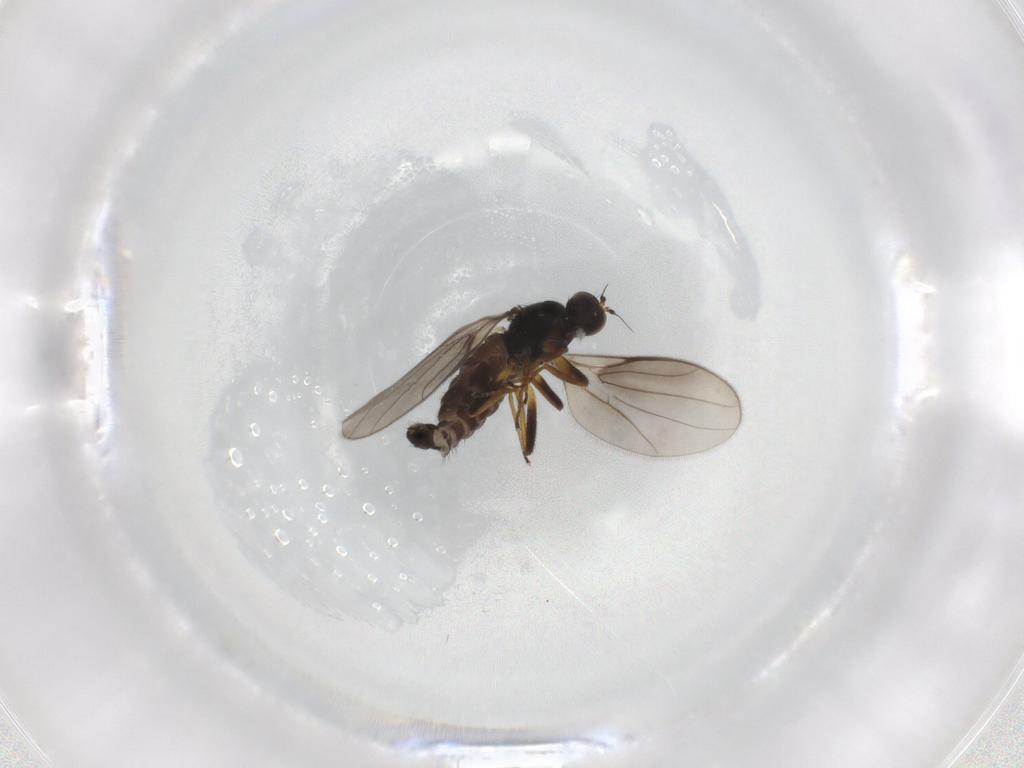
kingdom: Animalia
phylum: Arthropoda
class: Insecta
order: Diptera
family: Hybotidae
